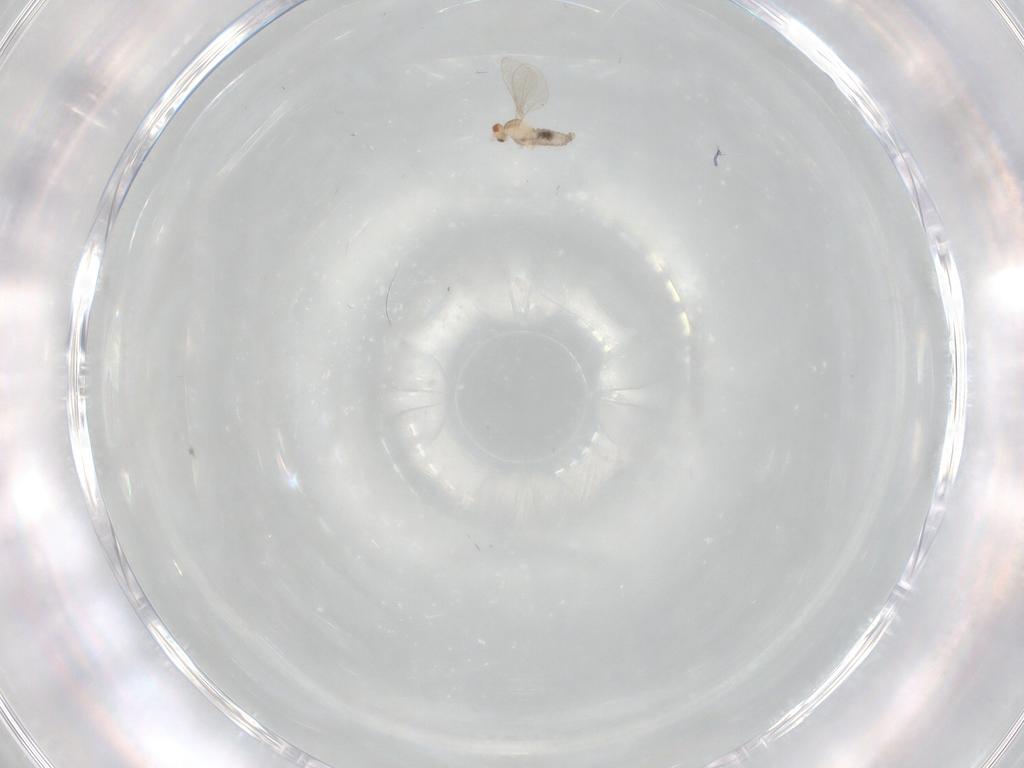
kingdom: Animalia
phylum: Arthropoda
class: Insecta
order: Diptera
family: Cecidomyiidae
